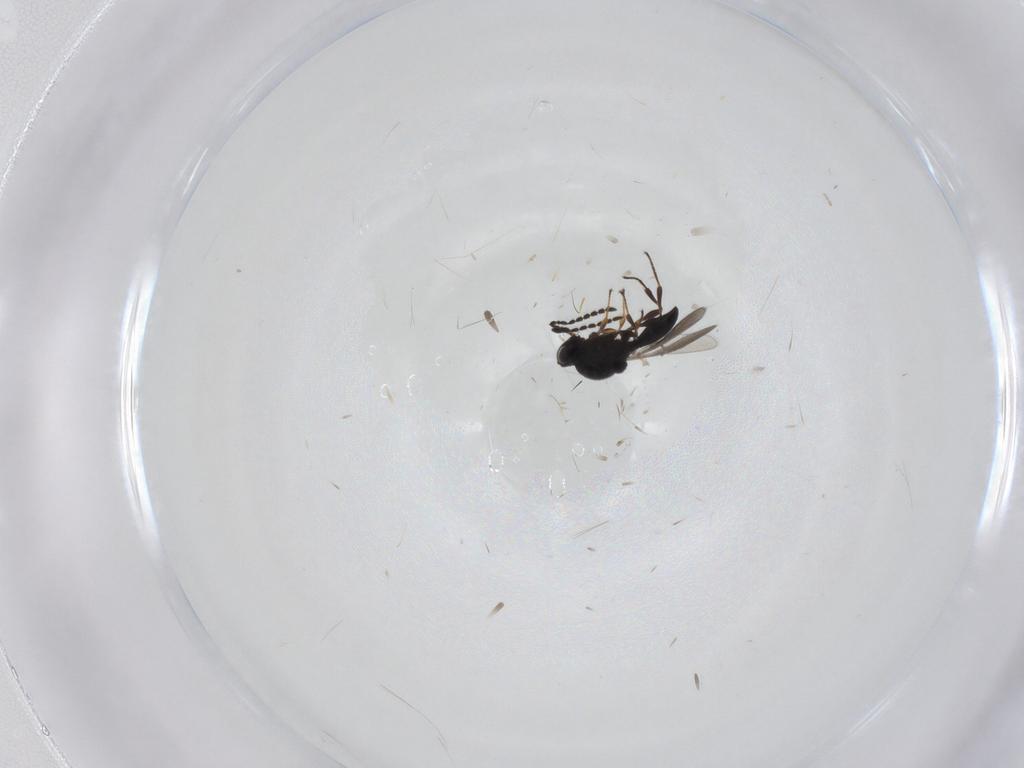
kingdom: Animalia
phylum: Arthropoda
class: Insecta
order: Hymenoptera
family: Platygastridae
